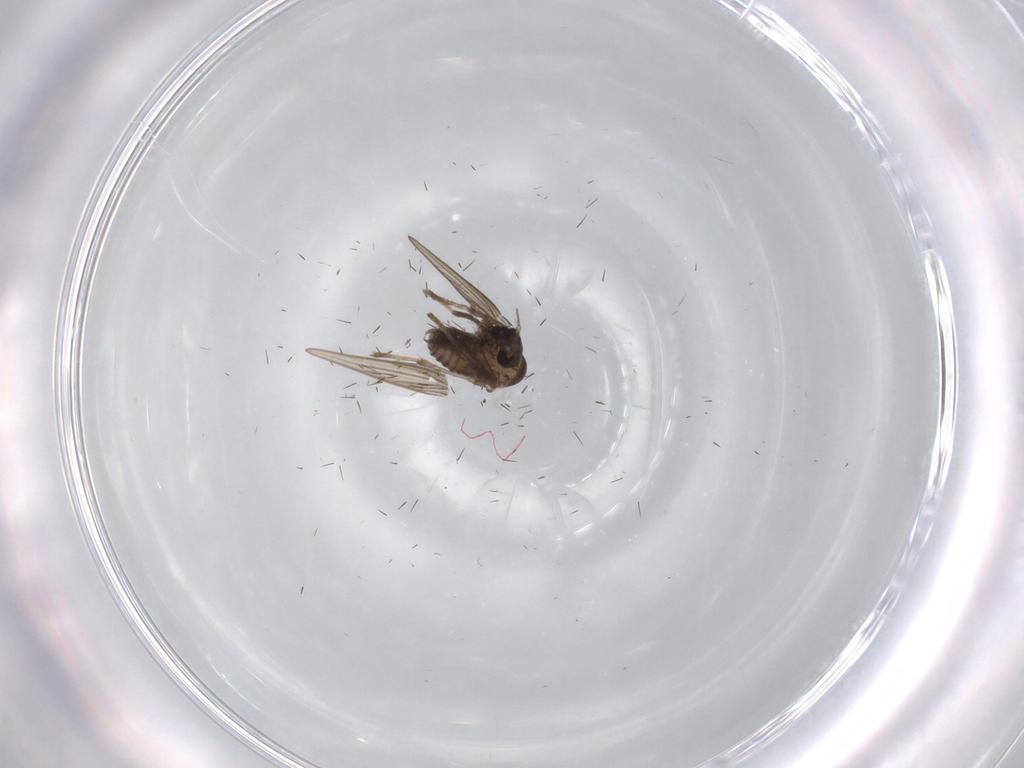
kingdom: Animalia
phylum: Arthropoda
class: Insecta
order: Diptera
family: Psychodidae
